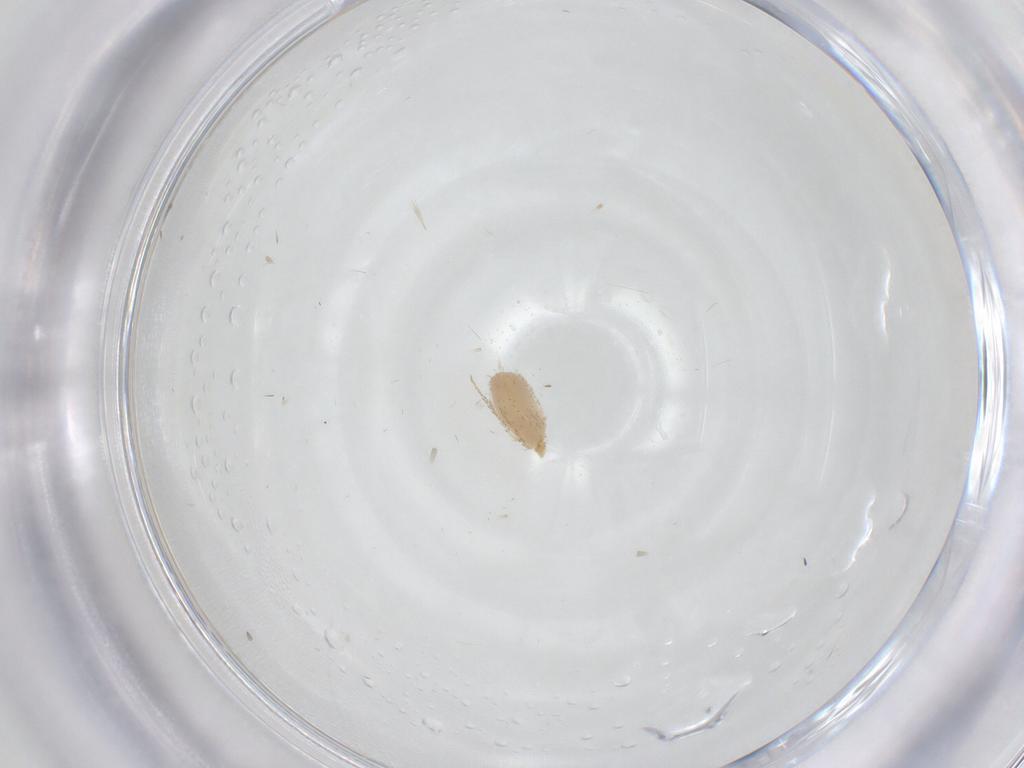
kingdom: Animalia
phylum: Arthropoda
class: Insecta
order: Diptera
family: Tachinidae
